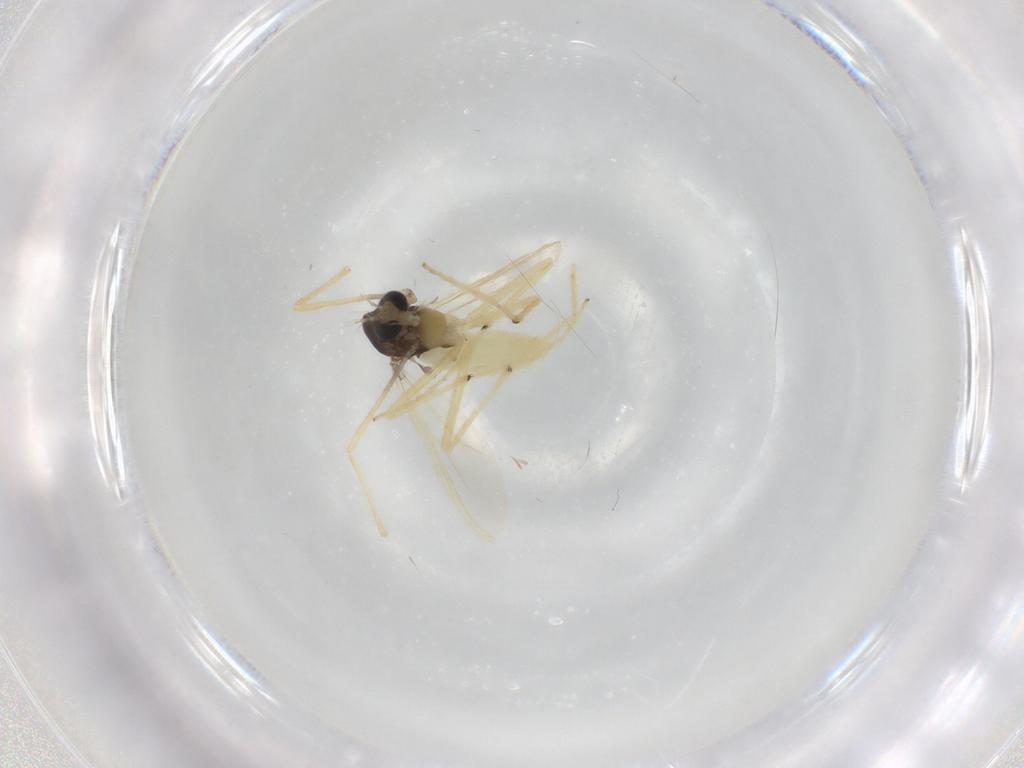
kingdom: Animalia
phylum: Arthropoda
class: Insecta
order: Diptera
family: Chironomidae
